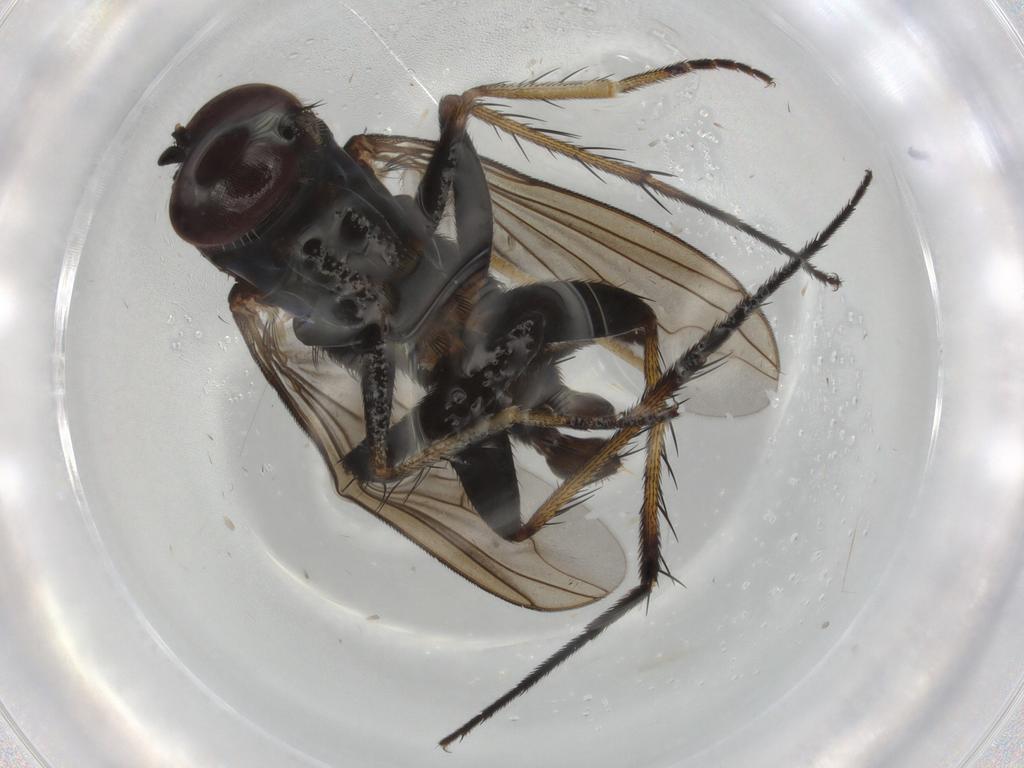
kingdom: Animalia
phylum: Arthropoda
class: Insecta
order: Diptera
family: Dolichopodidae
